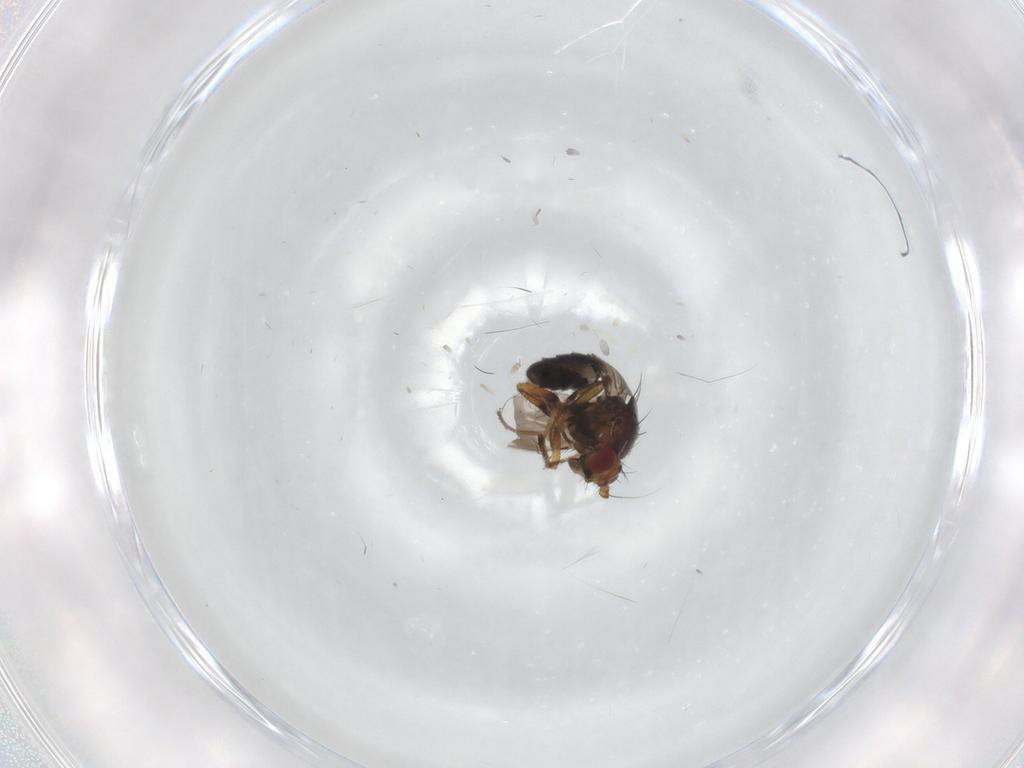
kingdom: Animalia
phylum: Arthropoda
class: Insecta
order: Diptera
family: Sphaeroceridae
